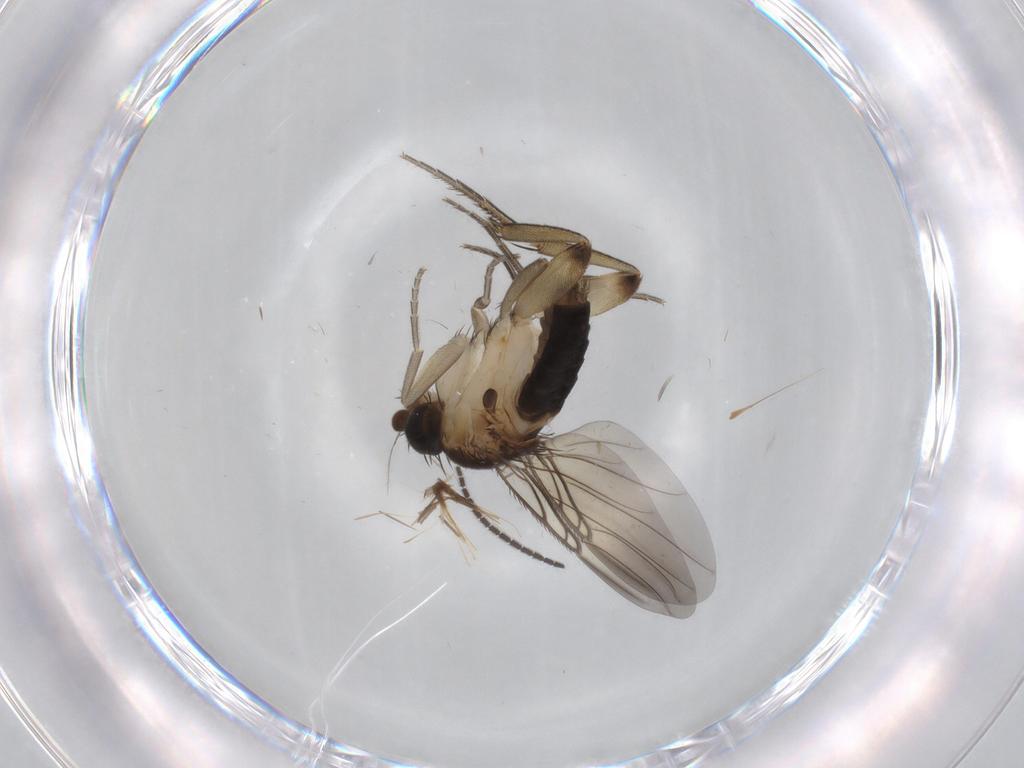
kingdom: Animalia
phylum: Arthropoda
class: Insecta
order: Diptera
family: Sciaridae
